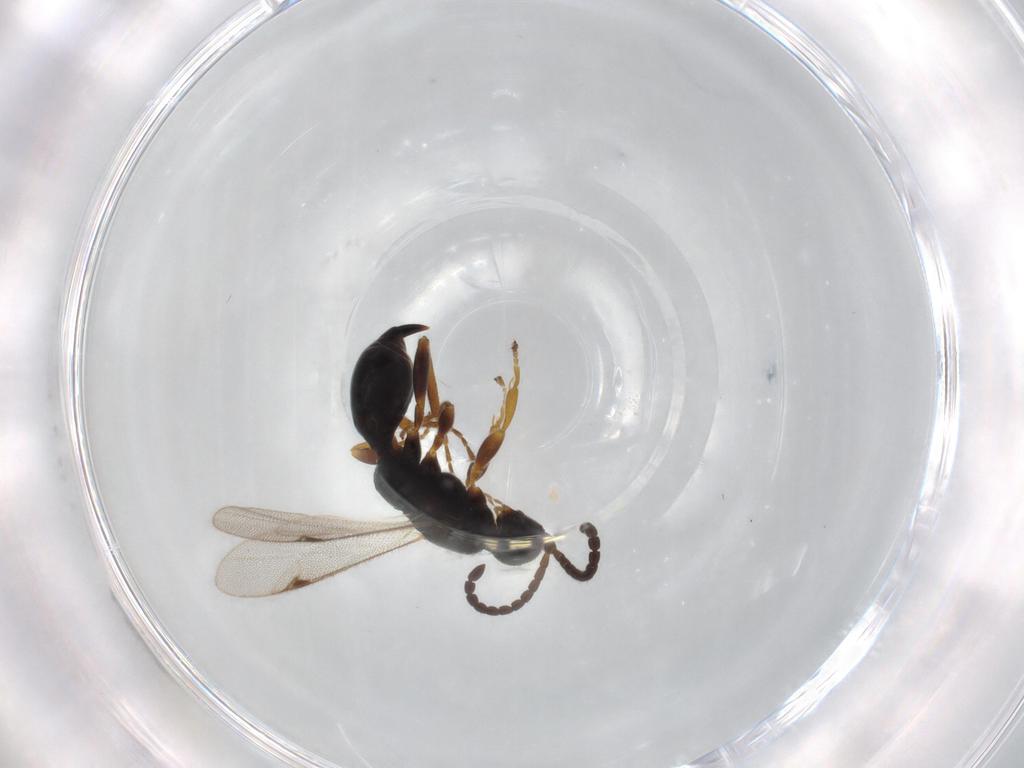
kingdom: Animalia
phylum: Arthropoda
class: Insecta
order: Hymenoptera
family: Proctotrupidae
